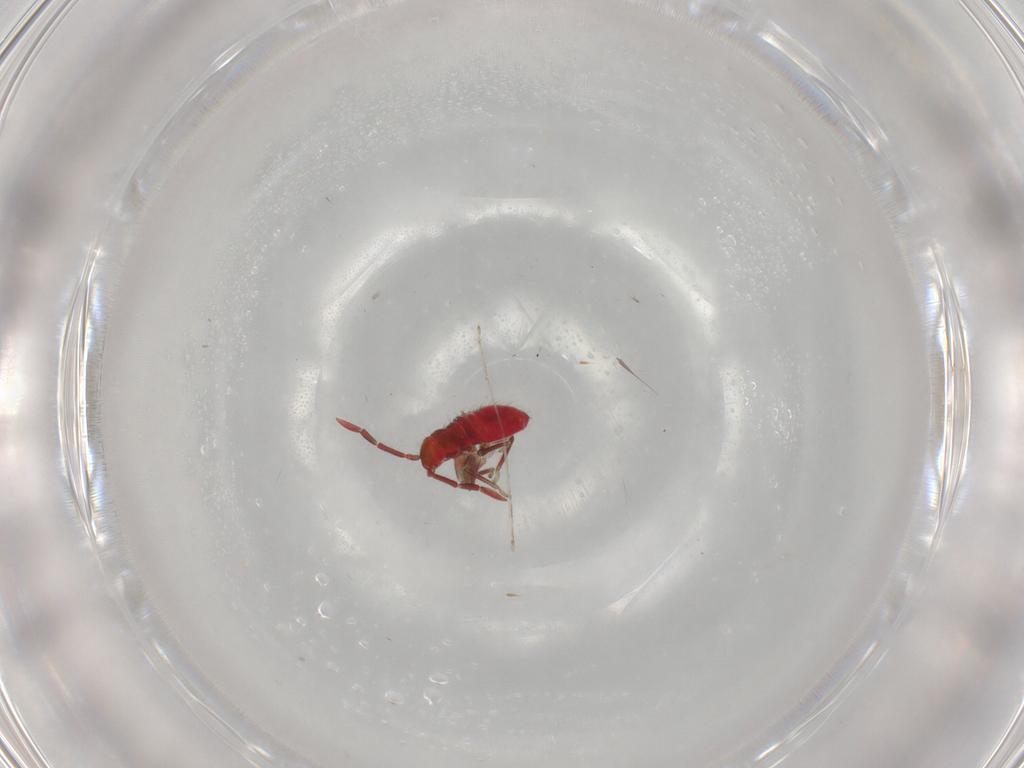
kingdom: Animalia
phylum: Arthropoda
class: Insecta
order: Hemiptera
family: Miridae
